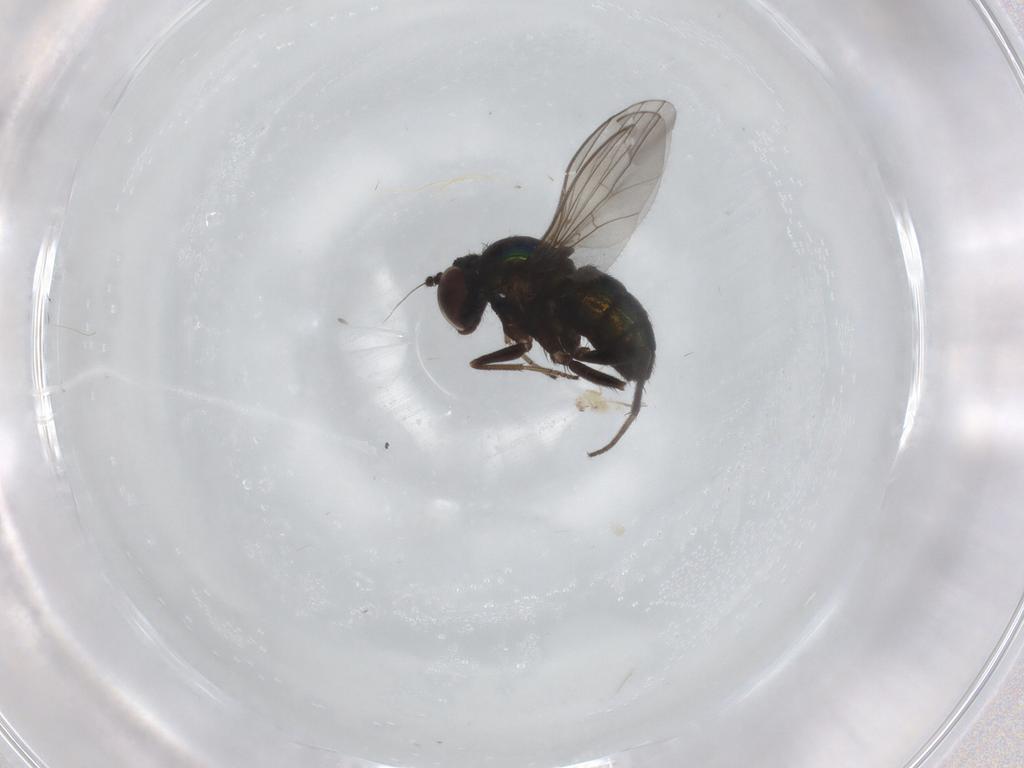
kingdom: Animalia
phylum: Arthropoda
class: Insecta
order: Diptera
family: Dolichopodidae
